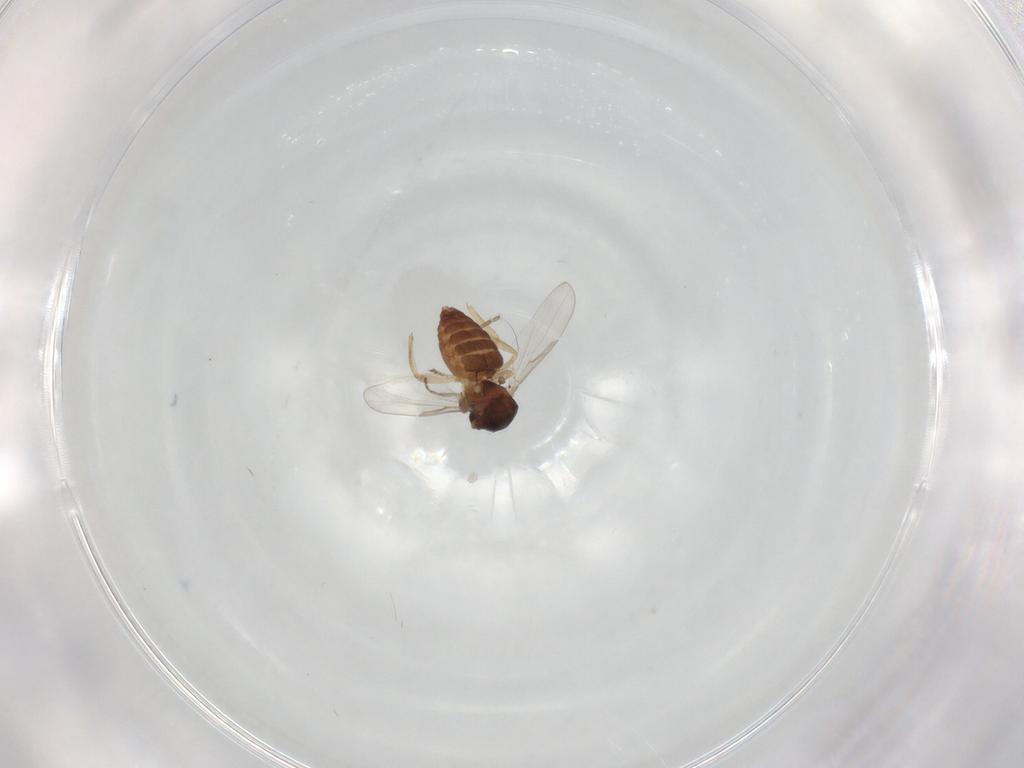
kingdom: Animalia
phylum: Arthropoda
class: Insecta
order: Diptera
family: Ceratopogonidae
